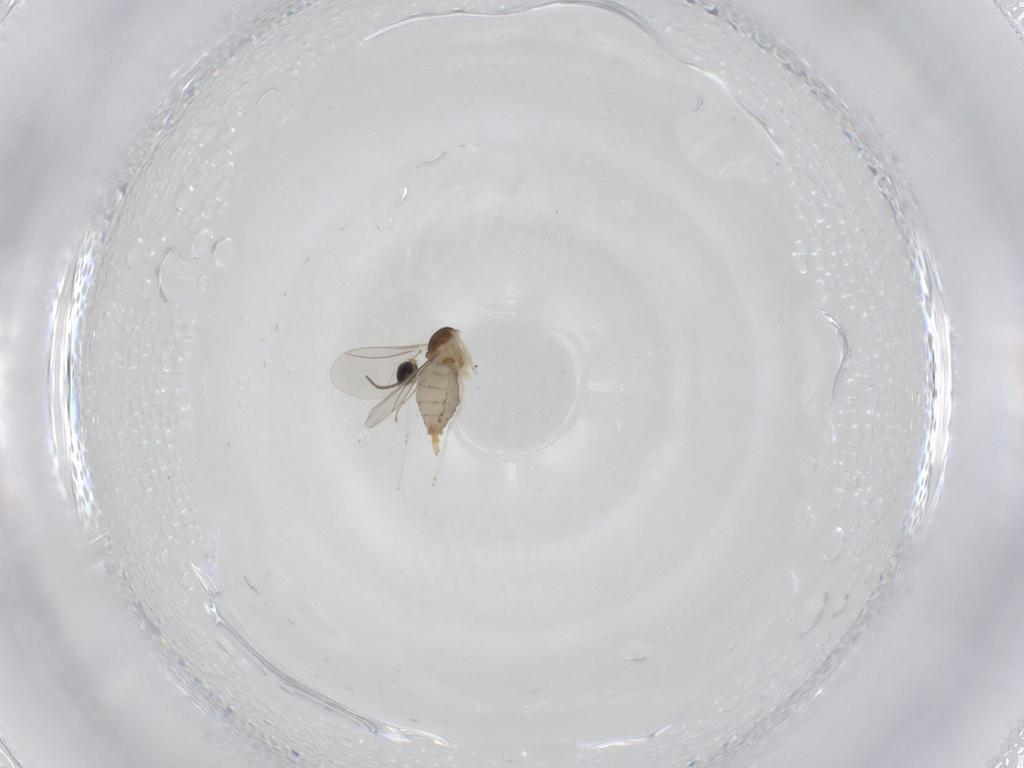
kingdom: Animalia
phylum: Arthropoda
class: Insecta
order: Diptera
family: Cecidomyiidae
